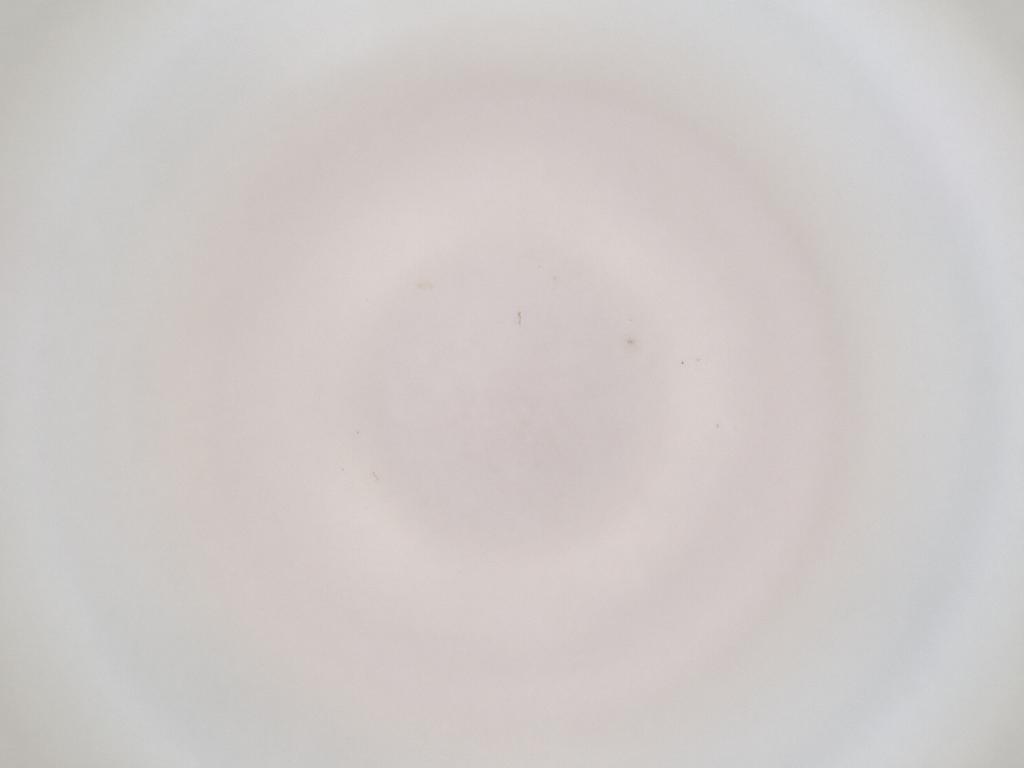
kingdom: Animalia
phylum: Arthropoda
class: Insecta
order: Diptera
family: Cecidomyiidae
